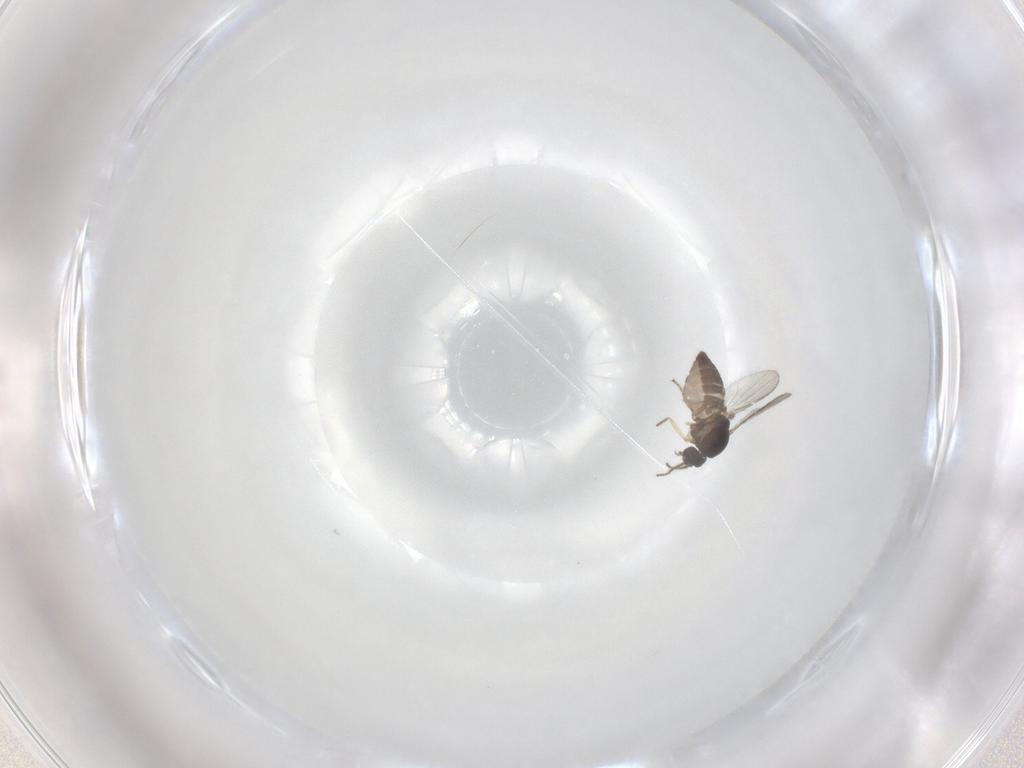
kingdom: Animalia
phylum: Arthropoda
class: Insecta
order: Diptera
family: Ceratopogonidae
